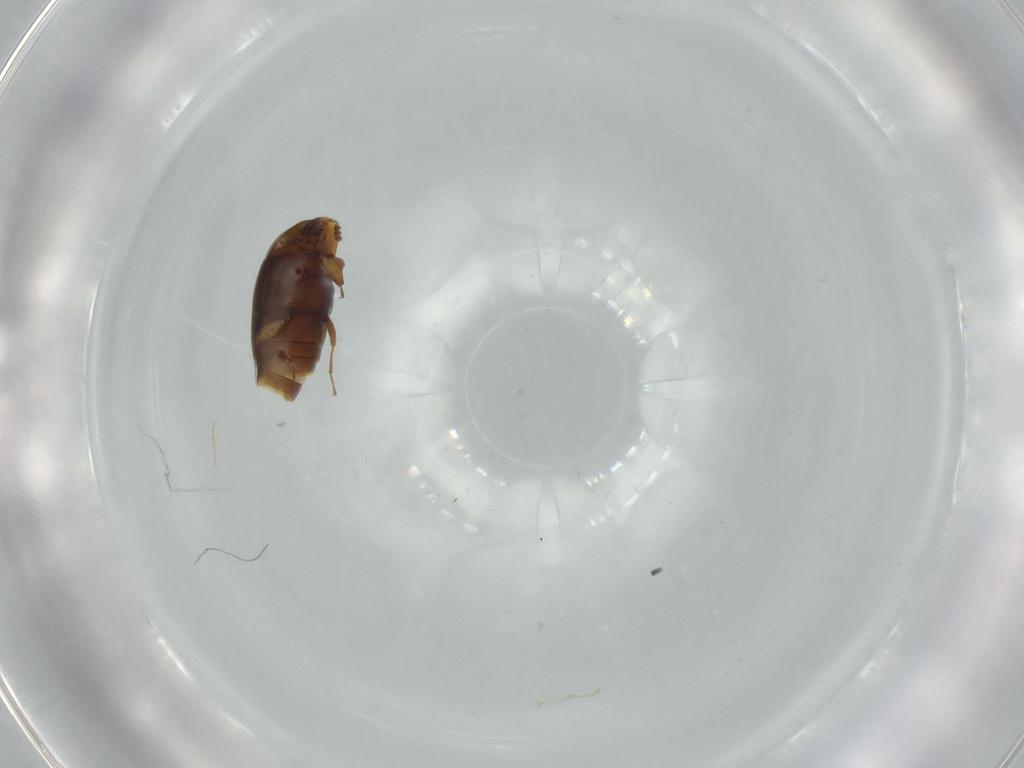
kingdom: Animalia
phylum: Arthropoda
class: Insecta
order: Coleoptera
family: Corylophidae
